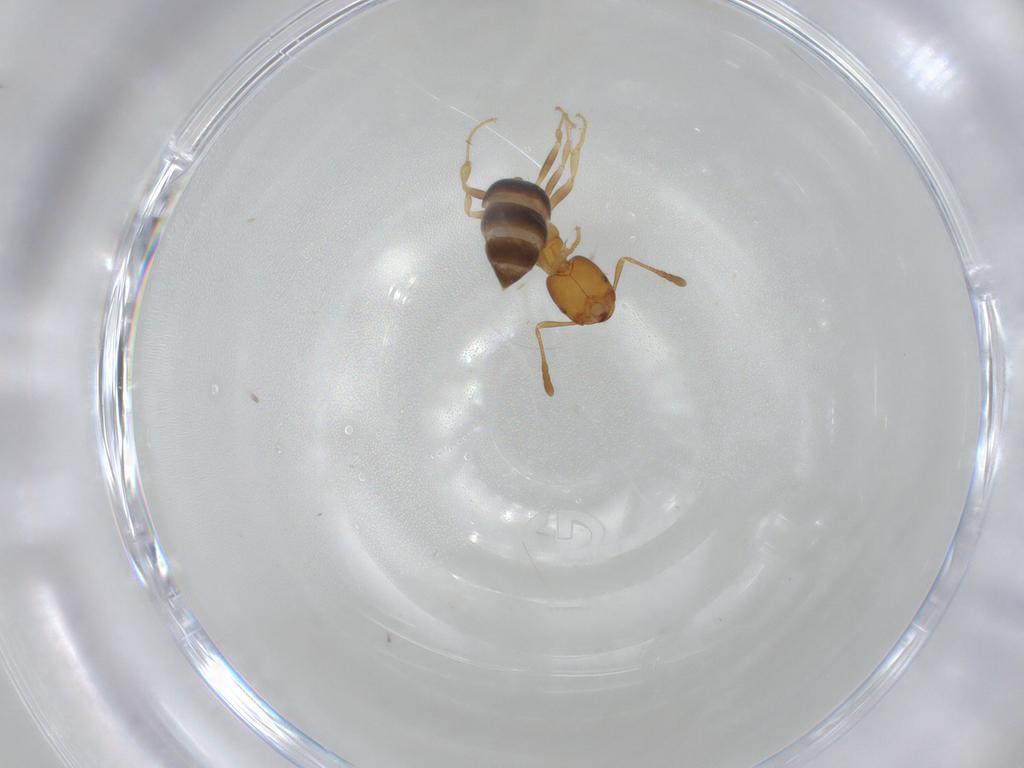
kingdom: Animalia
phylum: Arthropoda
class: Insecta
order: Hymenoptera
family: Formicidae
